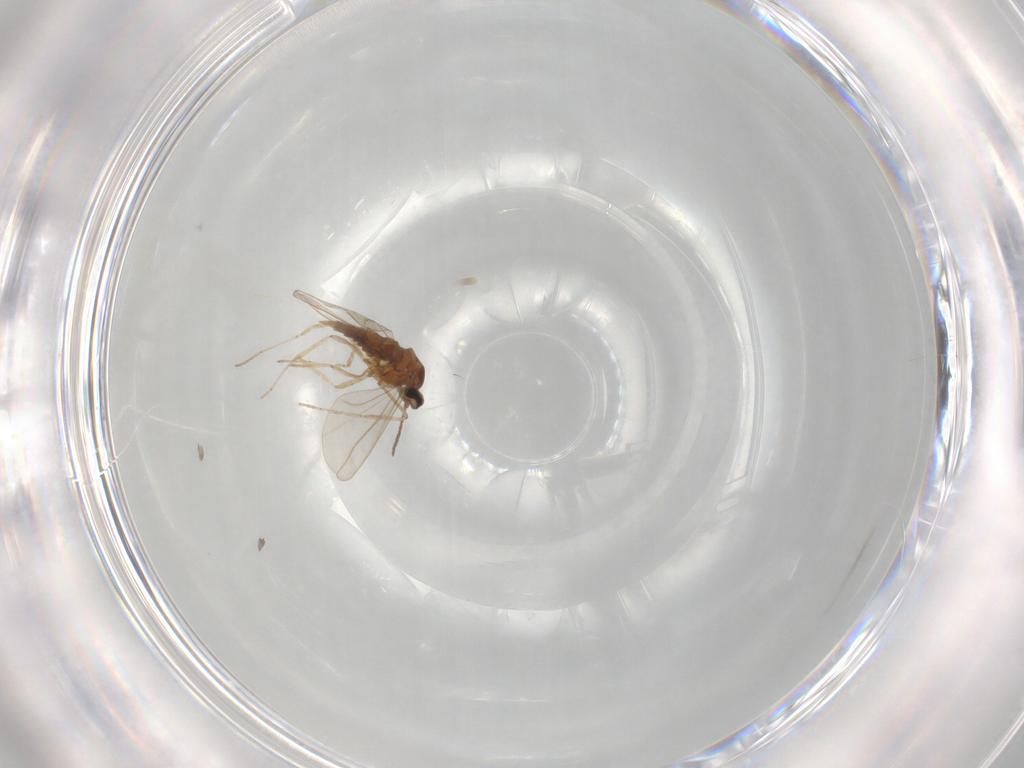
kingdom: Animalia
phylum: Arthropoda
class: Insecta
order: Diptera
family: Cecidomyiidae
